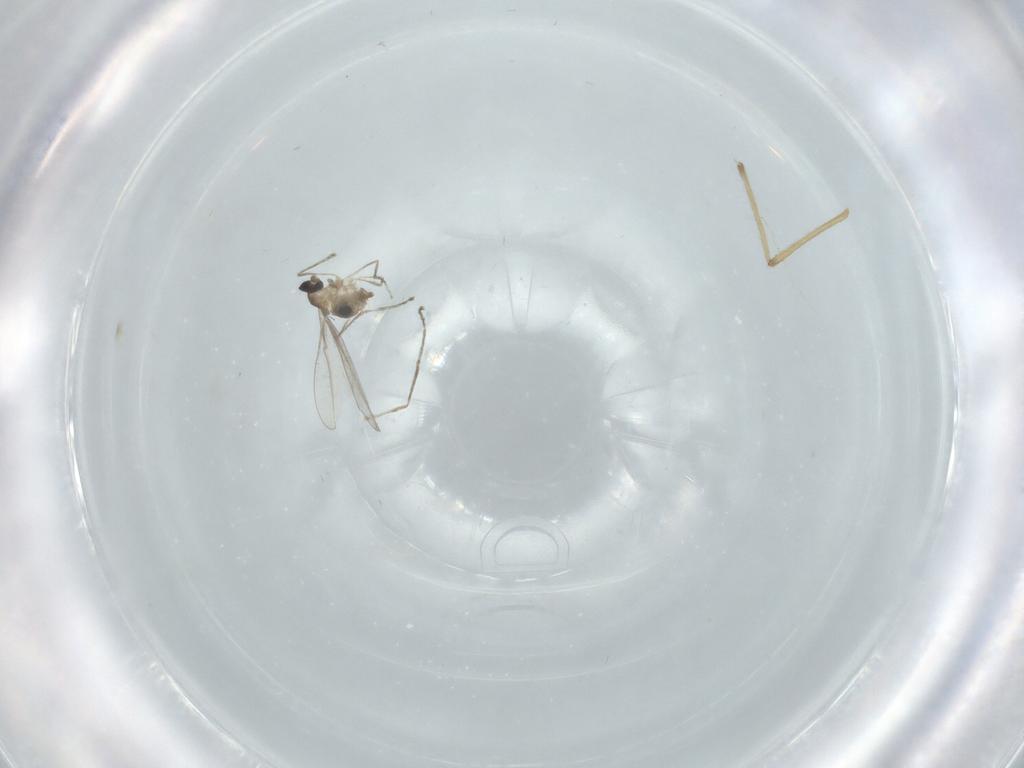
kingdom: Animalia
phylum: Arthropoda
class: Insecta
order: Diptera
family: Cecidomyiidae
